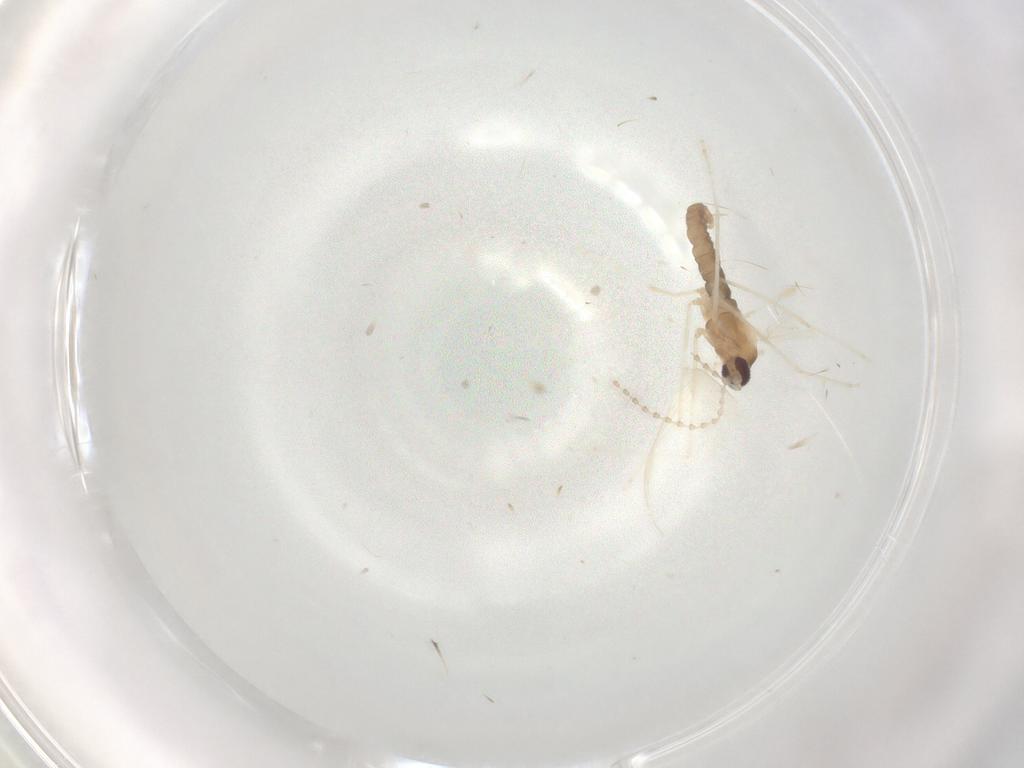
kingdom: Animalia
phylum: Arthropoda
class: Insecta
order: Diptera
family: Cecidomyiidae
